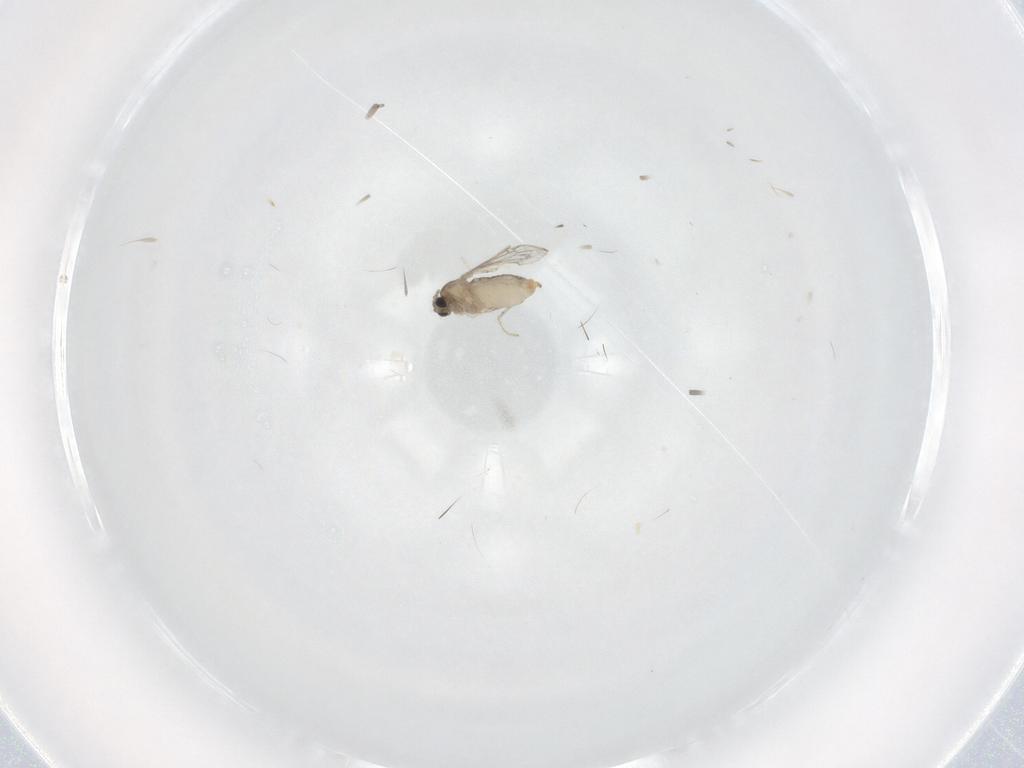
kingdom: Animalia
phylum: Arthropoda
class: Insecta
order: Diptera
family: Cecidomyiidae
